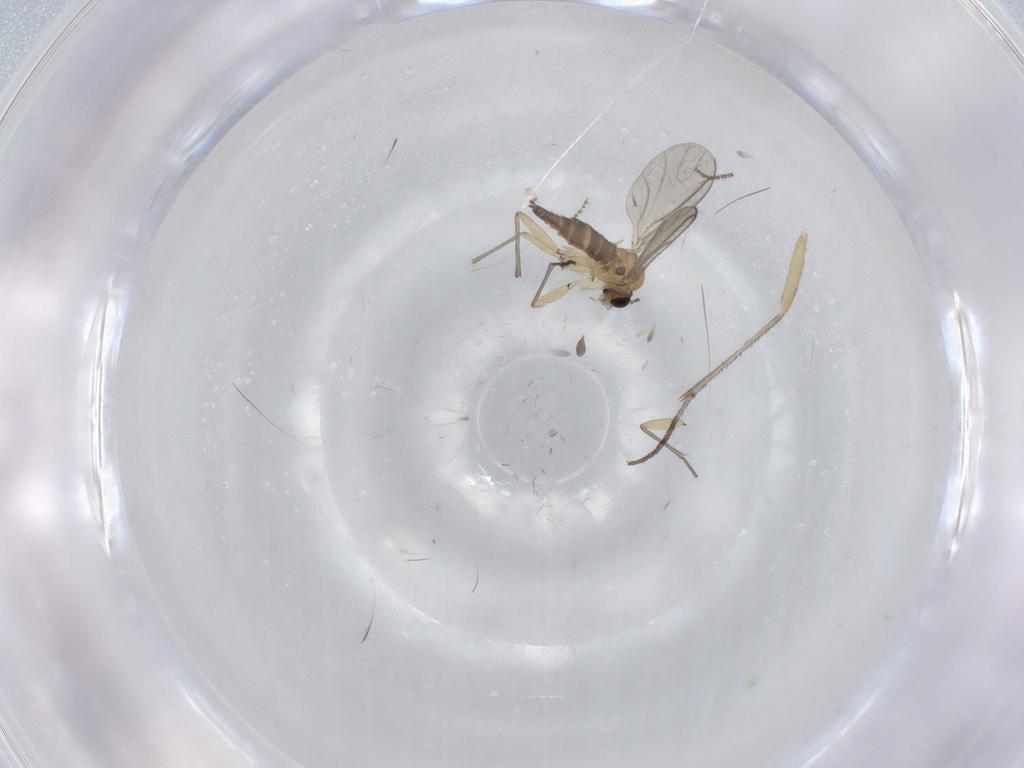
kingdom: Animalia
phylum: Arthropoda
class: Insecta
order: Diptera
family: Sciaridae
